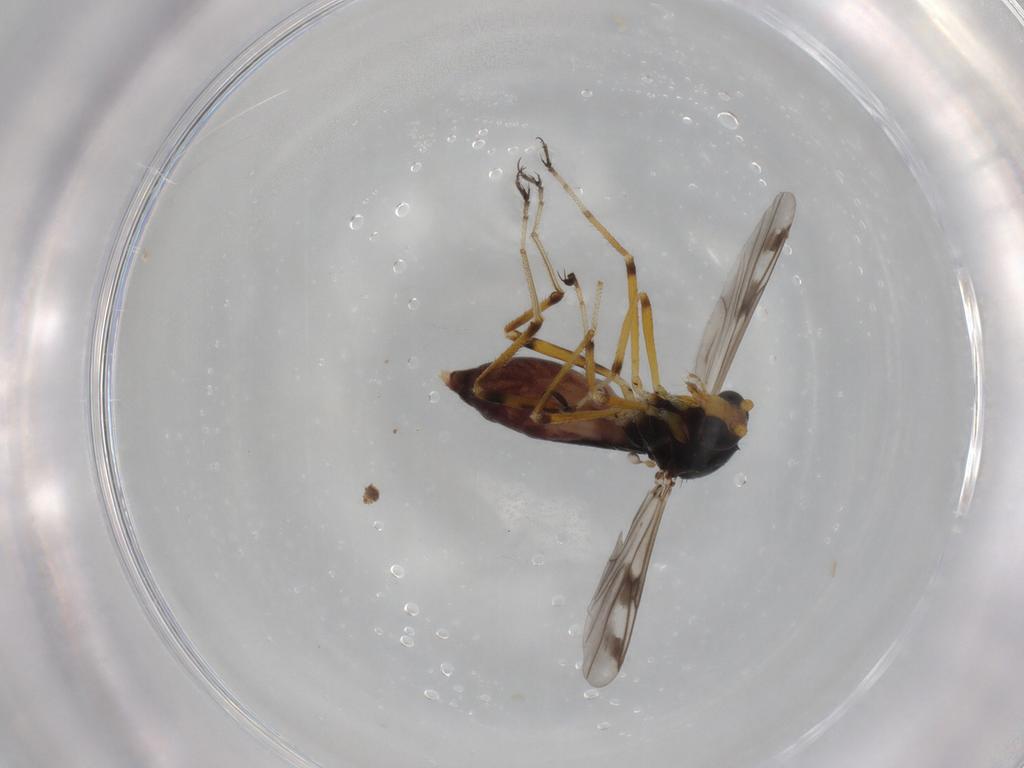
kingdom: Animalia
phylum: Arthropoda
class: Insecta
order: Diptera
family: Ceratopogonidae
